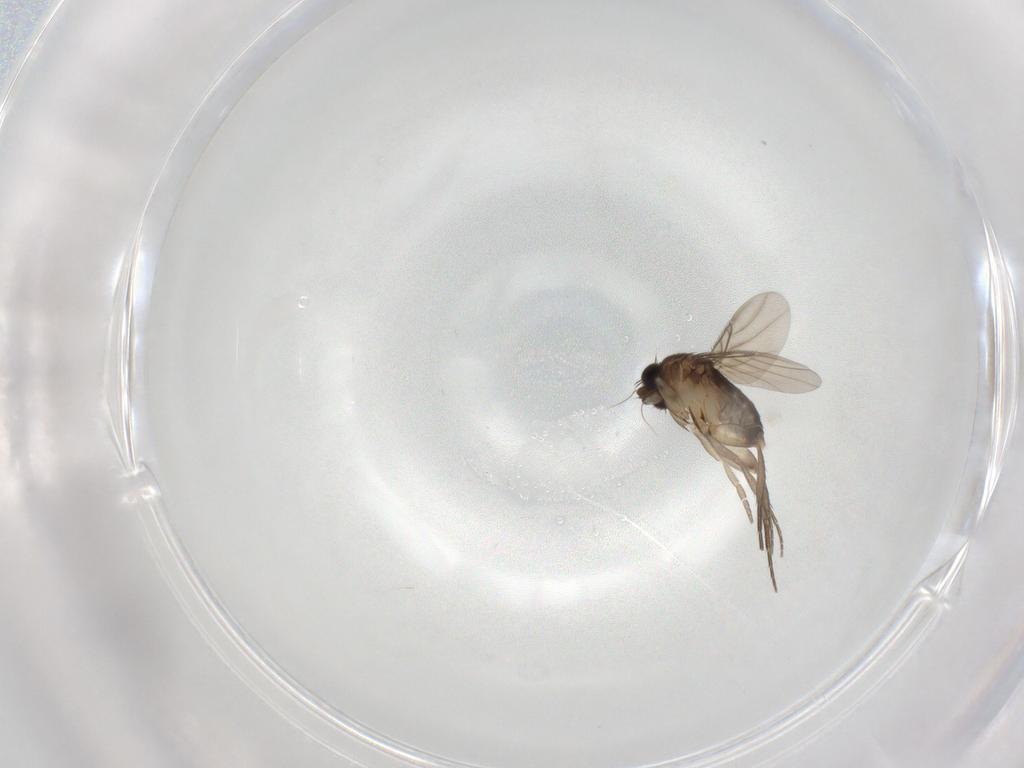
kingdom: Animalia
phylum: Arthropoda
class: Insecta
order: Diptera
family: Phoridae
